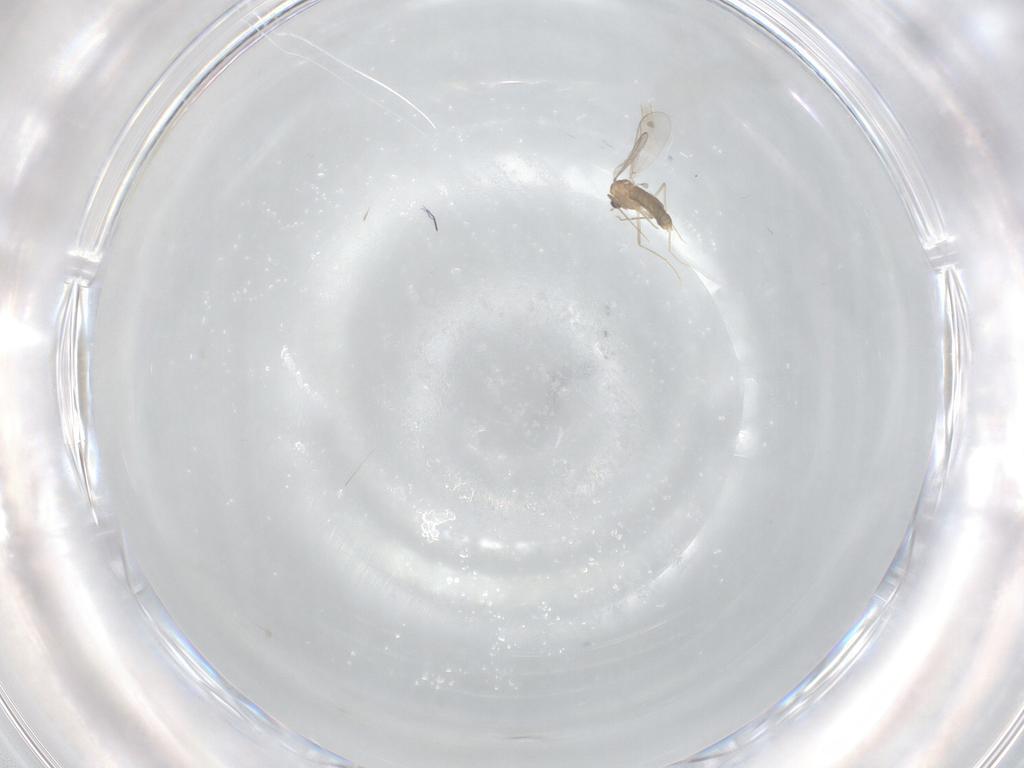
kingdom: Animalia
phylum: Arthropoda
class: Insecta
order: Diptera
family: Chironomidae
